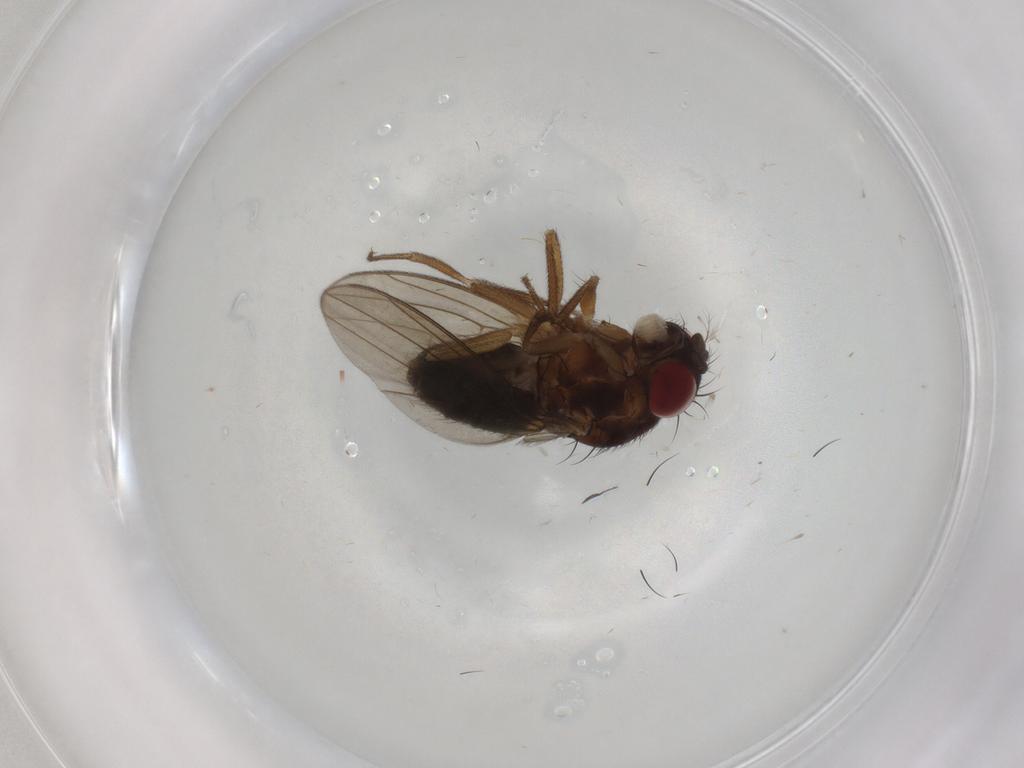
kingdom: Animalia
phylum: Arthropoda
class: Insecta
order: Diptera
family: Drosophilidae
